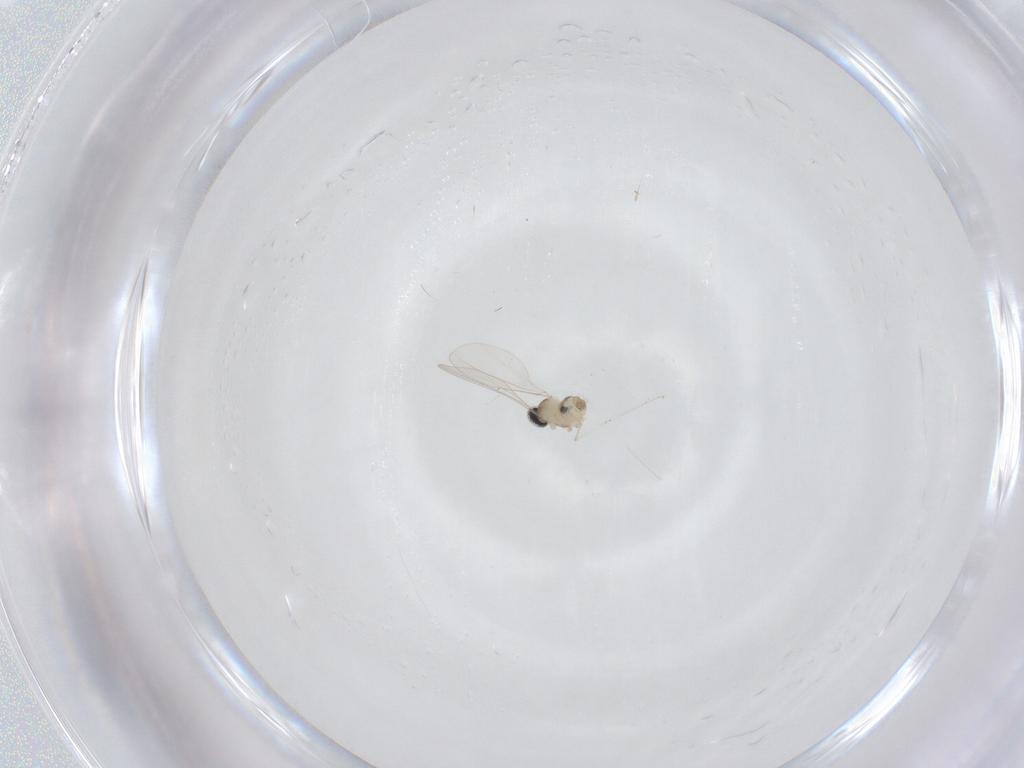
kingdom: Animalia
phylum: Arthropoda
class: Insecta
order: Diptera
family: Cecidomyiidae
